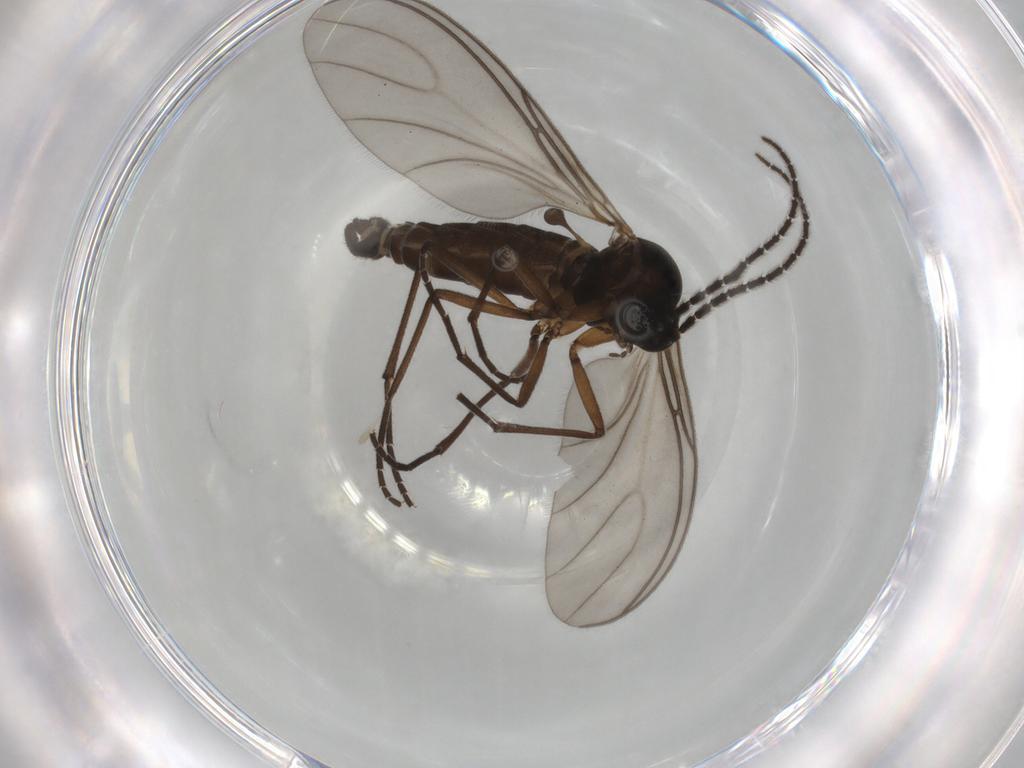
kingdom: Animalia
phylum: Arthropoda
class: Insecta
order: Diptera
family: Sciaridae
